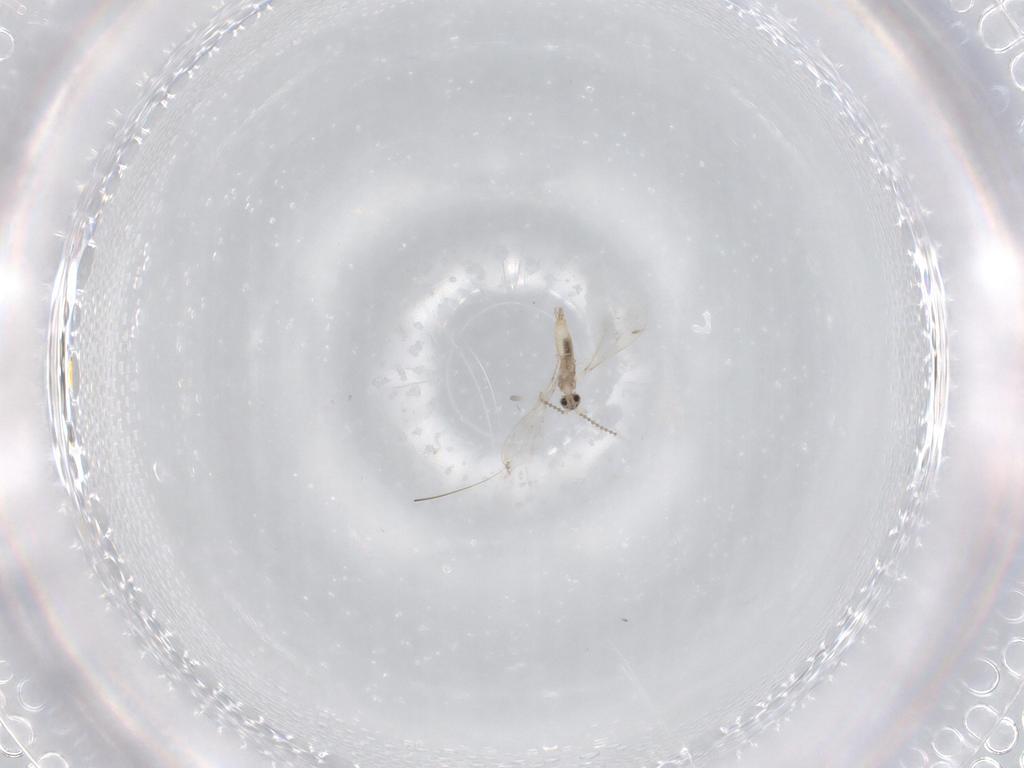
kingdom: Animalia
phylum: Arthropoda
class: Insecta
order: Diptera
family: Cecidomyiidae
